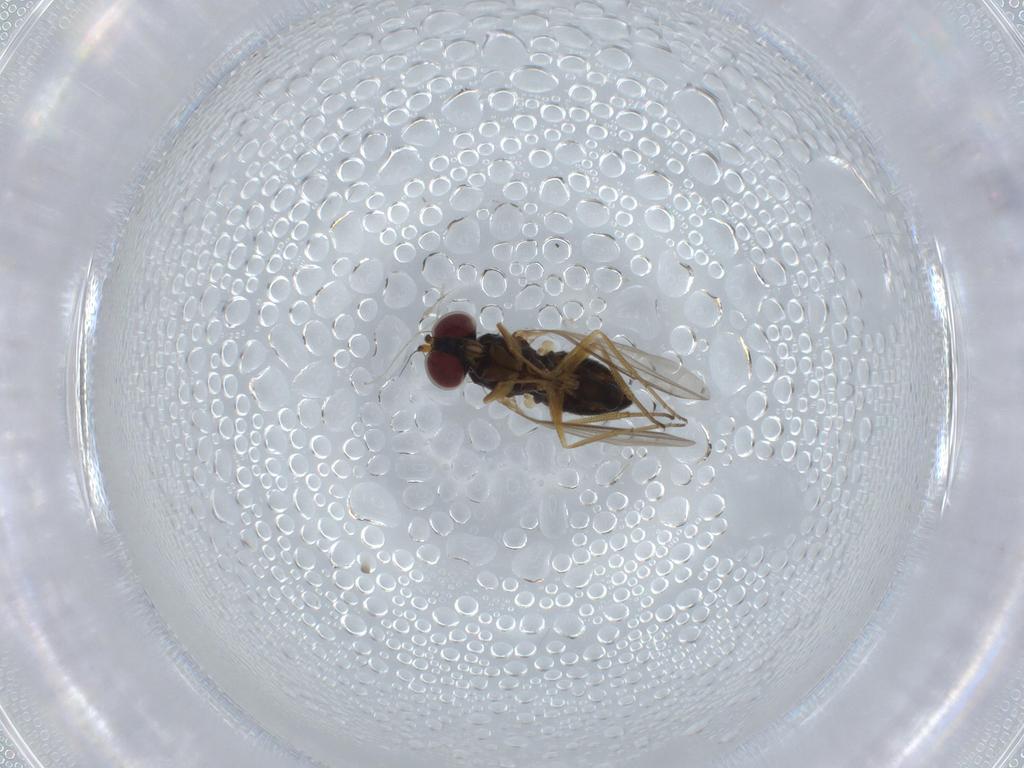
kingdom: Animalia
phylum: Arthropoda
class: Insecta
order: Diptera
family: Dolichopodidae
